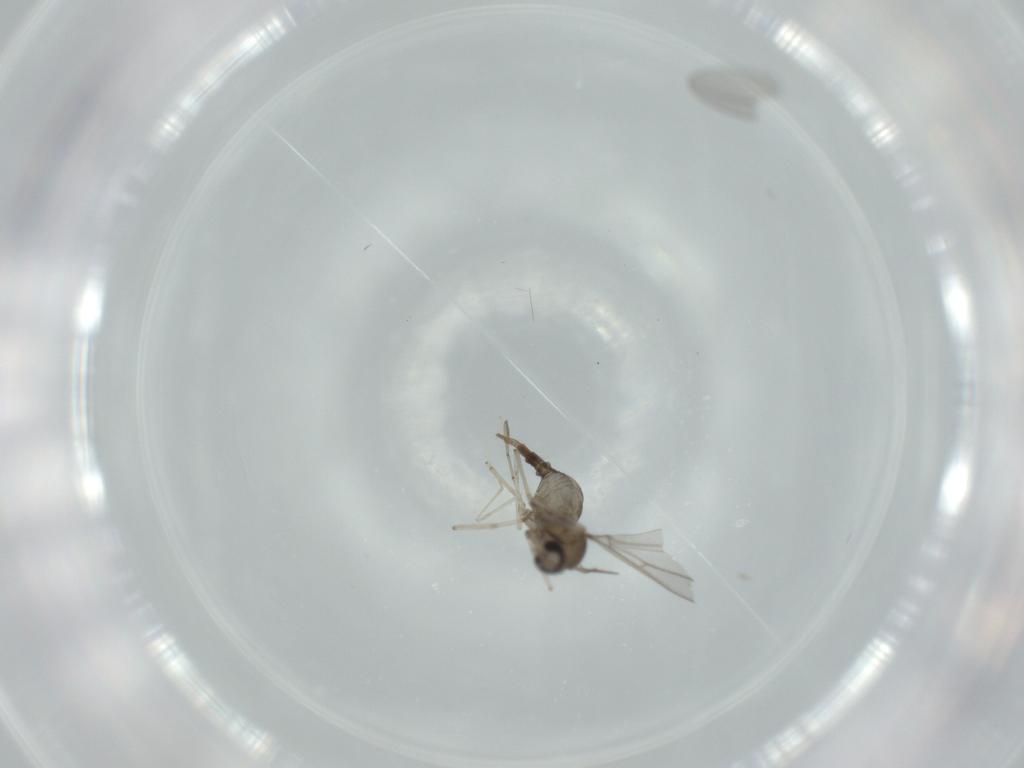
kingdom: Animalia
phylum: Arthropoda
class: Insecta
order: Diptera
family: Cecidomyiidae
